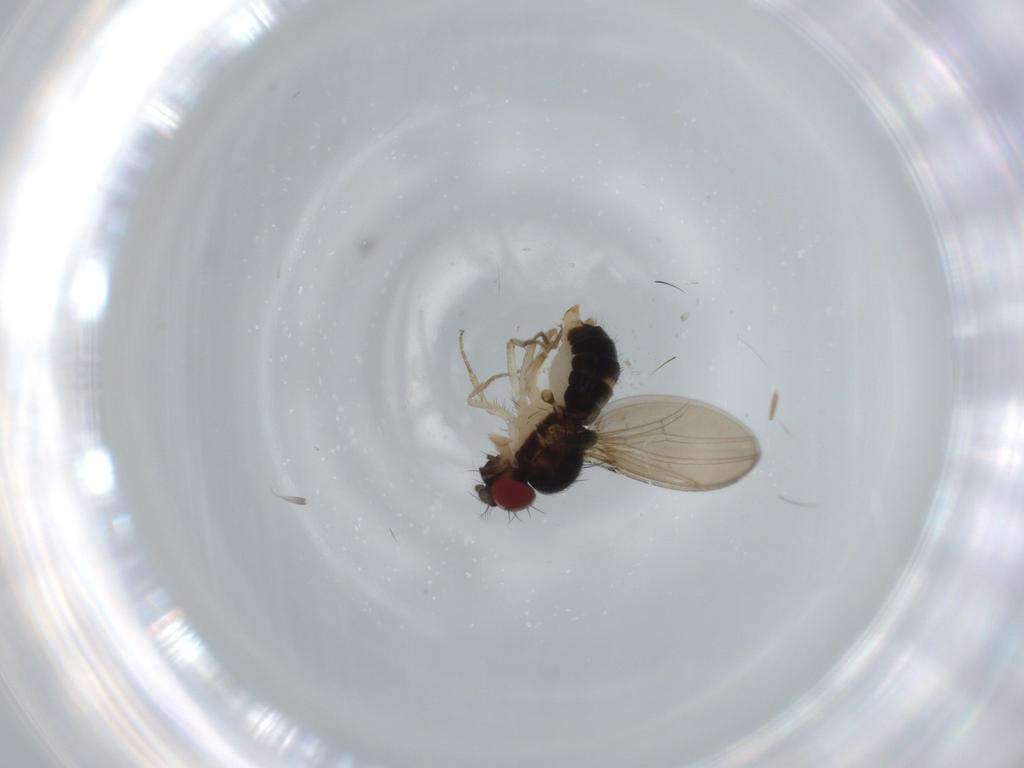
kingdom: Animalia
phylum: Arthropoda
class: Insecta
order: Diptera
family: Drosophilidae
